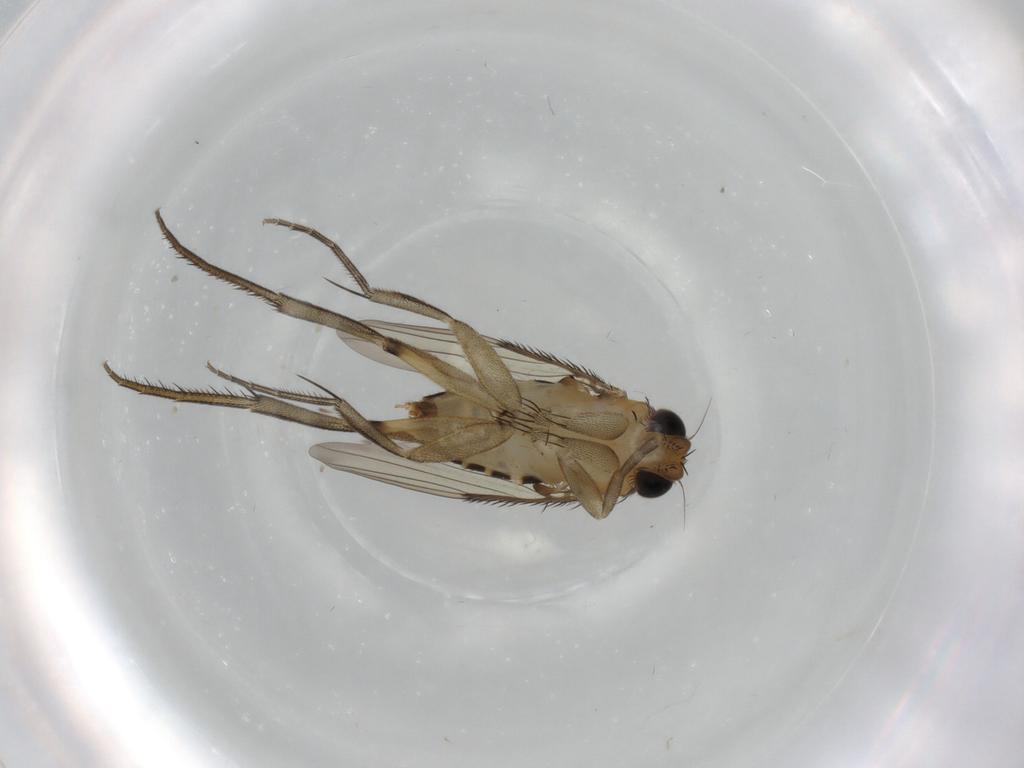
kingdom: Animalia
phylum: Arthropoda
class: Insecta
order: Diptera
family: Phoridae
